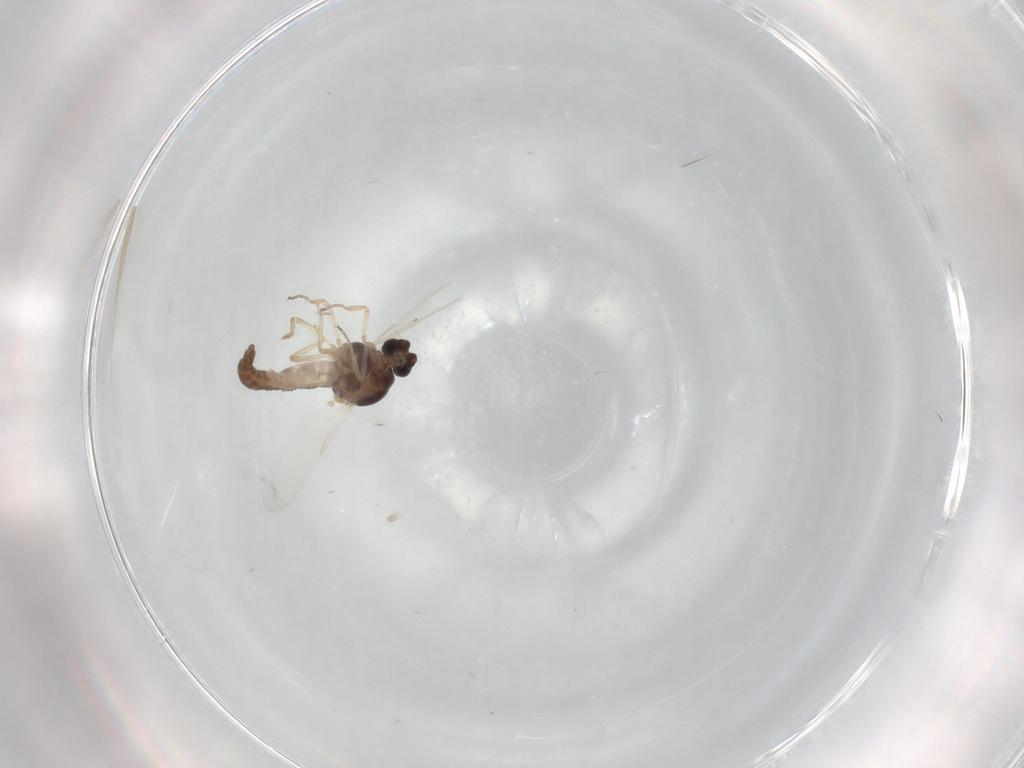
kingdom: Animalia
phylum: Arthropoda
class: Insecta
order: Diptera
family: Ceratopogonidae
